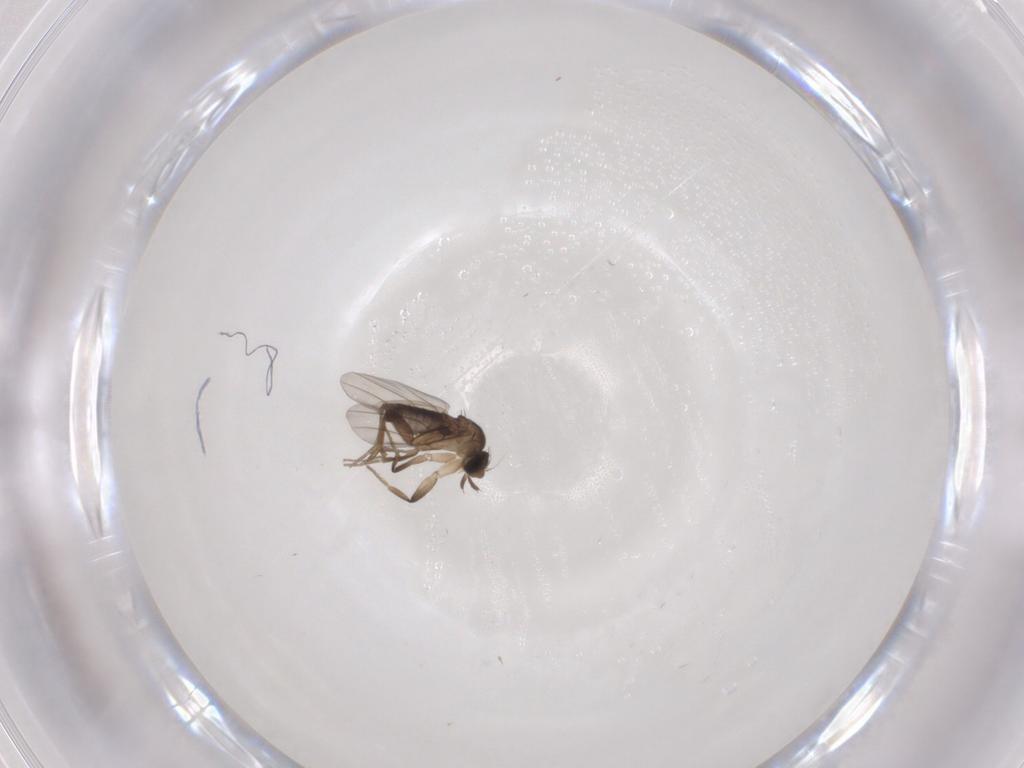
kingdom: Animalia
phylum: Arthropoda
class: Insecta
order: Diptera
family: Phoridae
